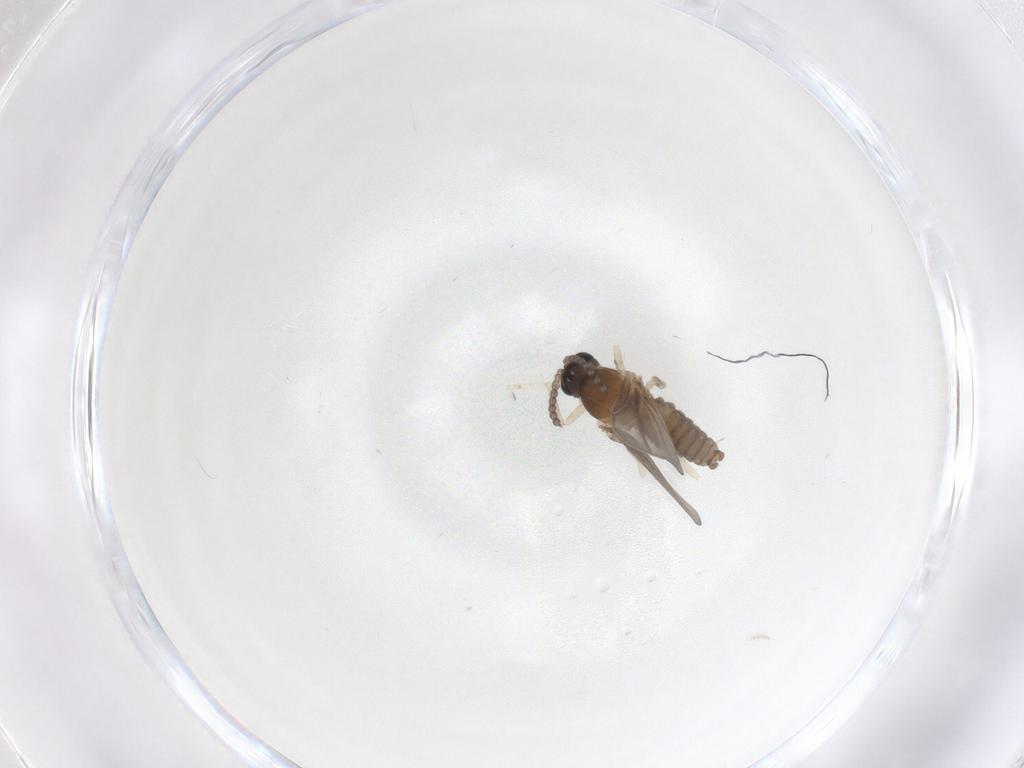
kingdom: Animalia
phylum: Arthropoda
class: Insecta
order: Diptera
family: Cecidomyiidae
